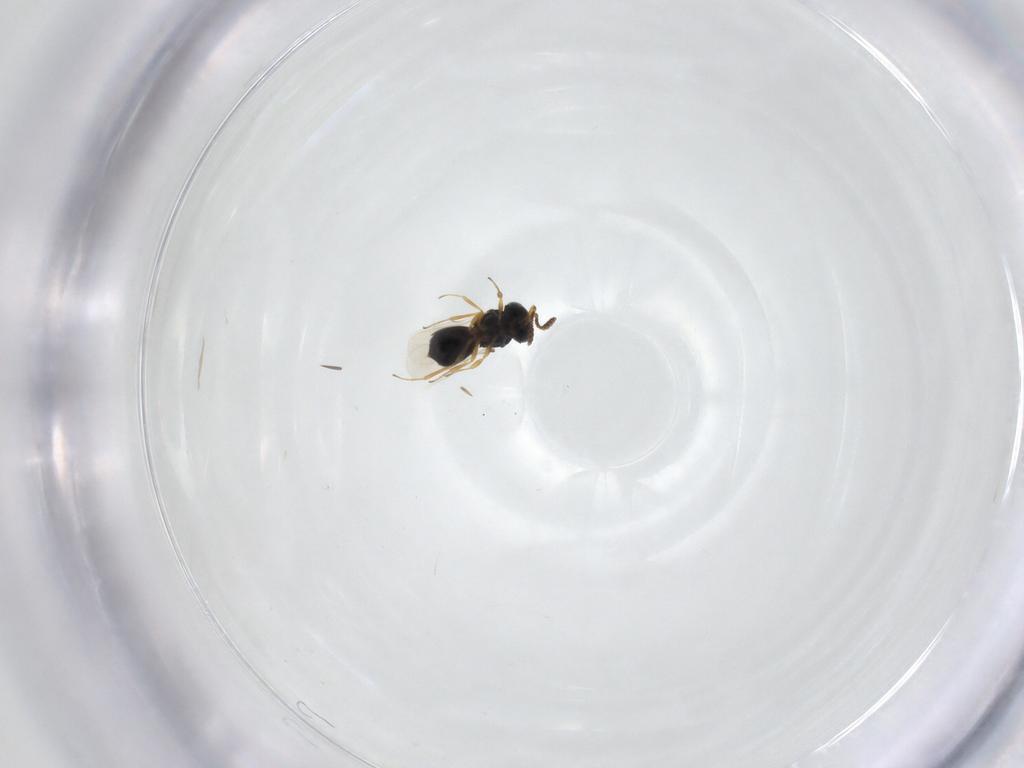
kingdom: Animalia
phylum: Arthropoda
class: Insecta
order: Hymenoptera
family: Scelionidae
